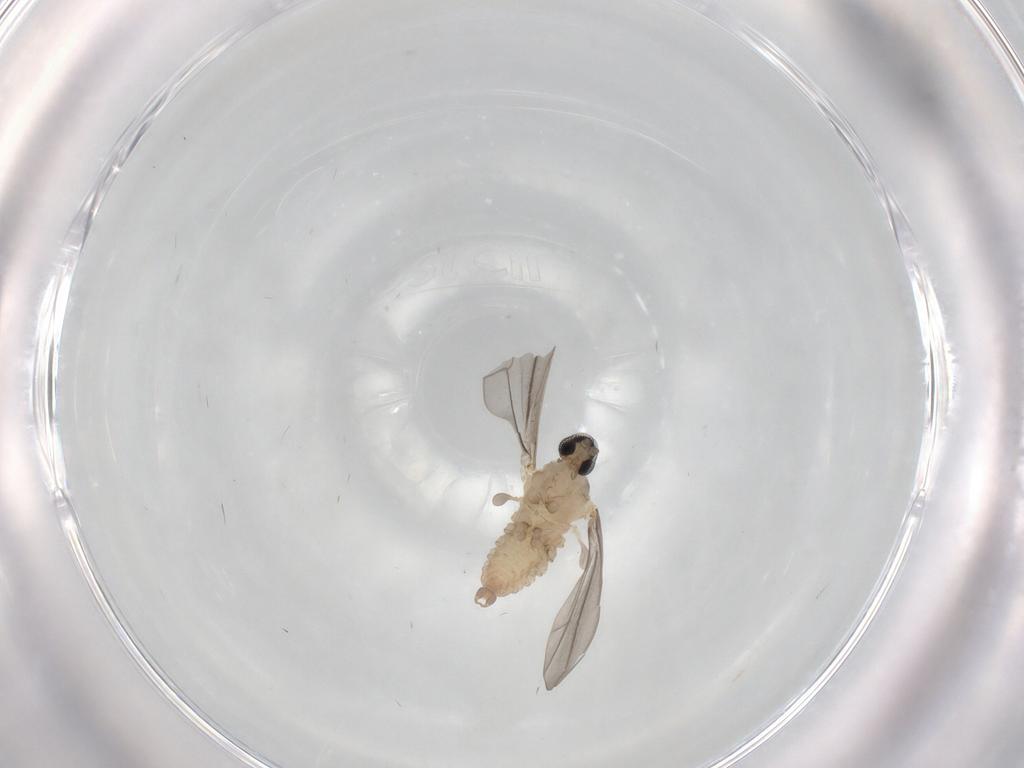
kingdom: Animalia
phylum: Arthropoda
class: Insecta
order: Diptera
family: Cecidomyiidae
